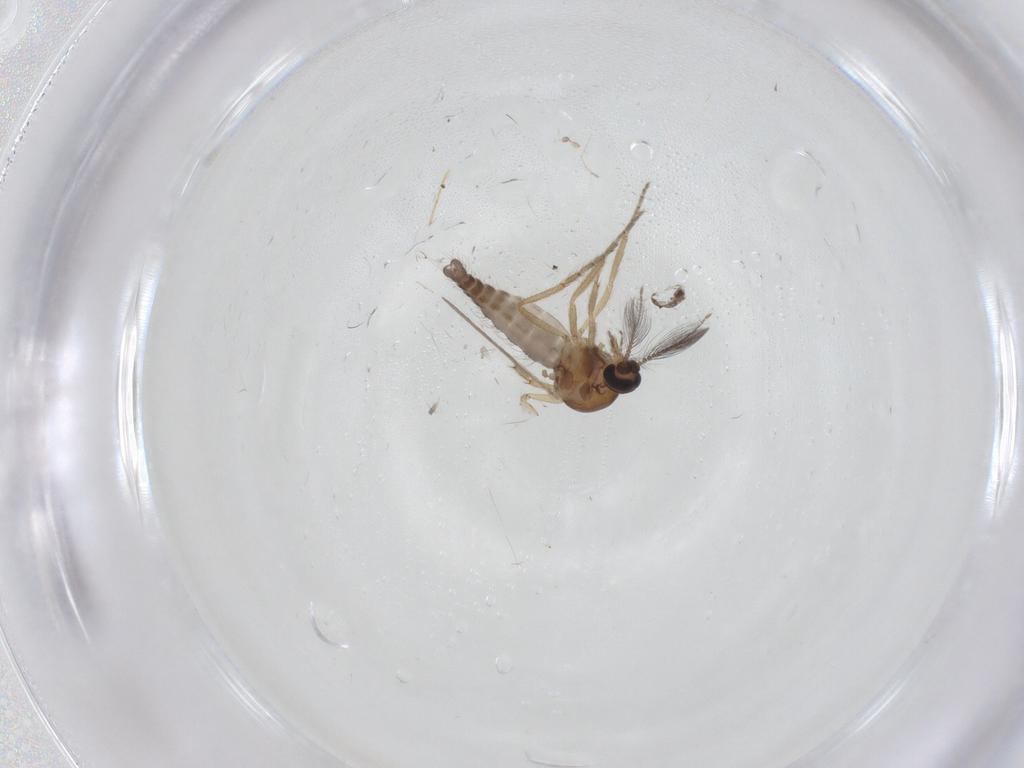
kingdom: Animalia
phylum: Arthropoda
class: Insecta
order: Diptera
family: Ceratopogonidae
